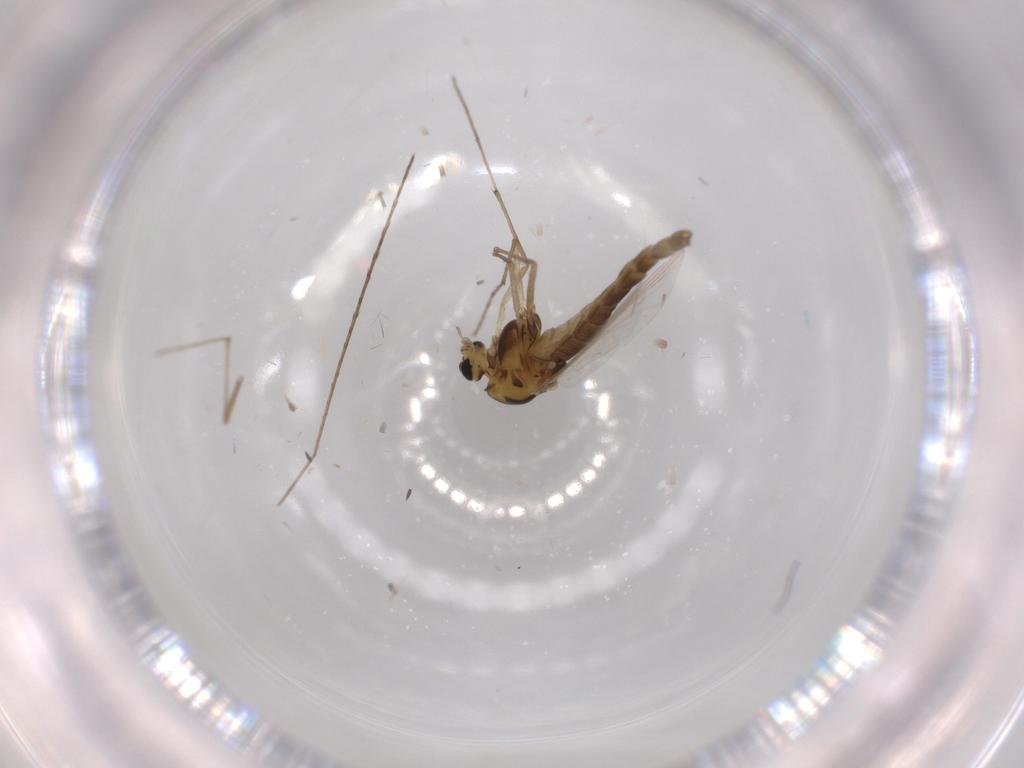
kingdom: Animalia
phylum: Arthropoda
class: Insecta
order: Diptera
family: Chironomidae
